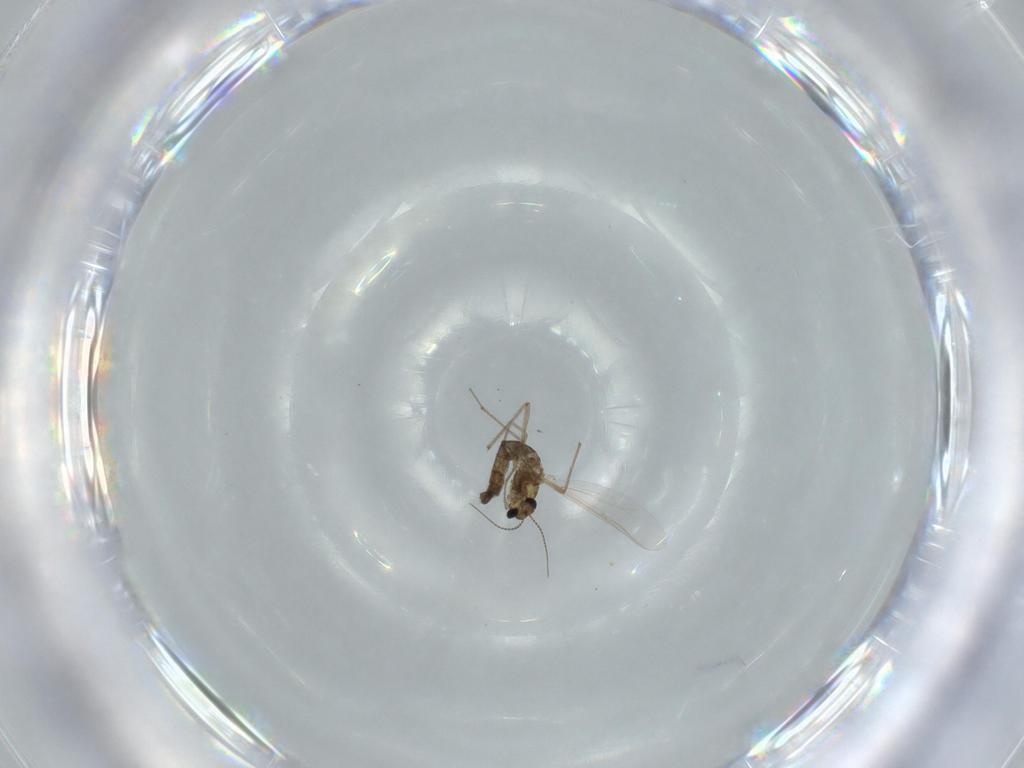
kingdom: Animalia
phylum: Arthropoda
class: Insecta
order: Diptera
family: Chironomidae
